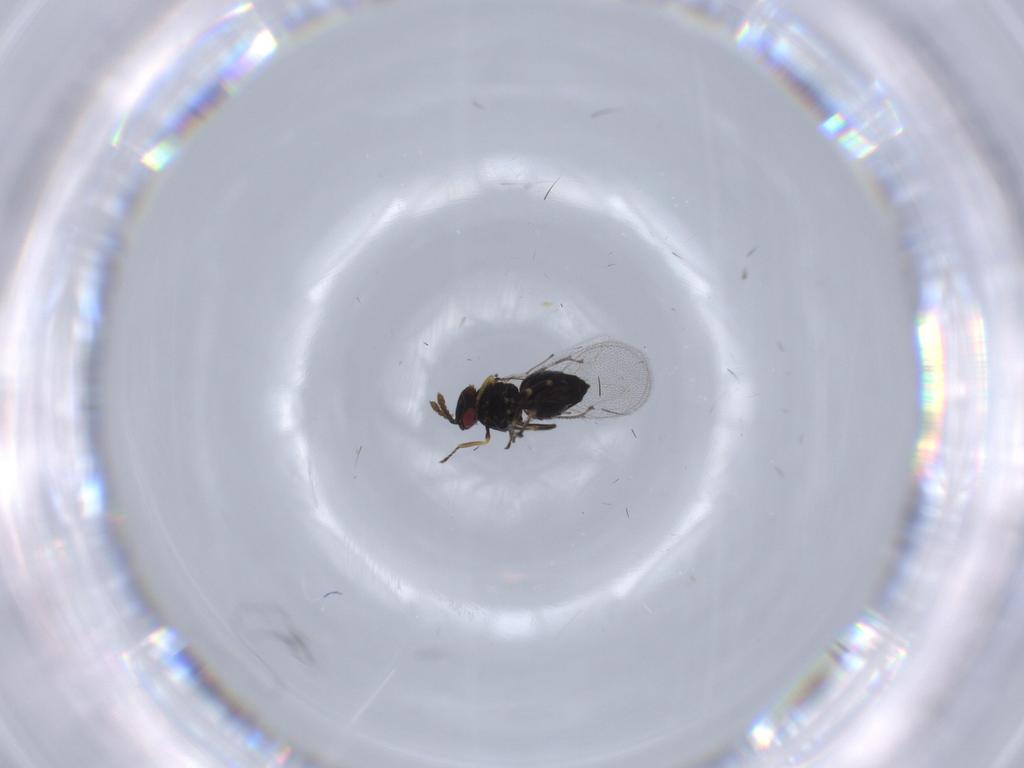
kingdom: Animalia
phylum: Arthropoda
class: Insecta
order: Hymenoptera
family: Eulophidae
